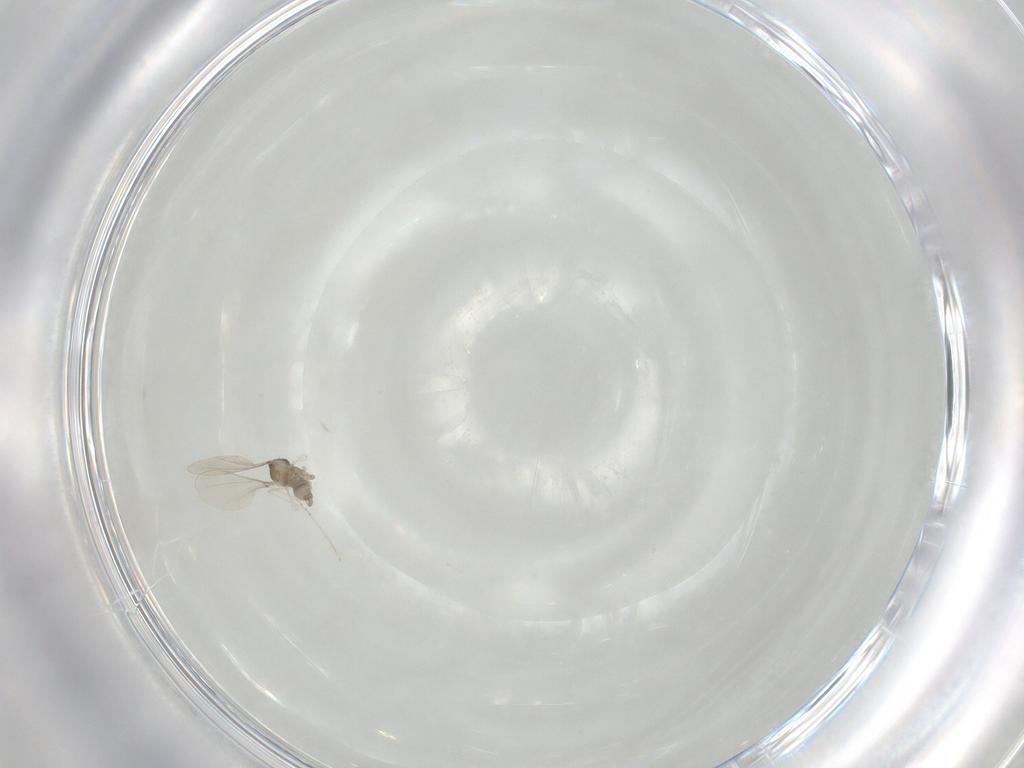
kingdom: Animalia
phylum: Arthropoda
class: Insecta
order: Diptera
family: Cecidomyiidae
